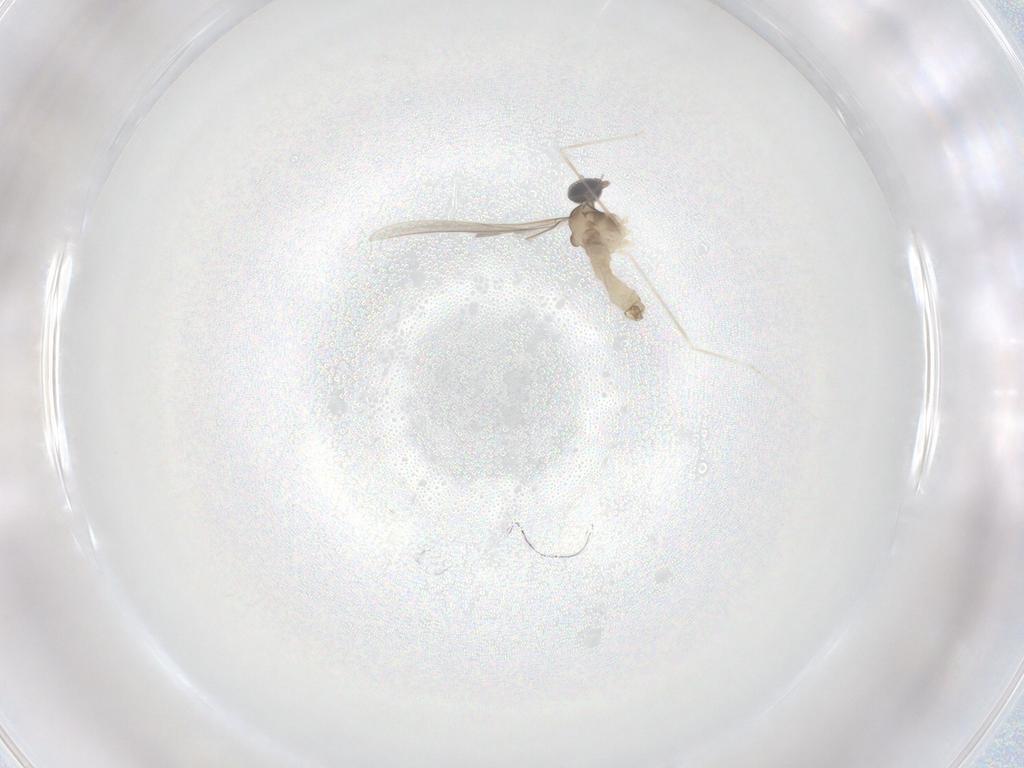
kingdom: Animalia
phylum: Arthropoda
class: Insecta
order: Diptera
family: Cecidomyiidae
